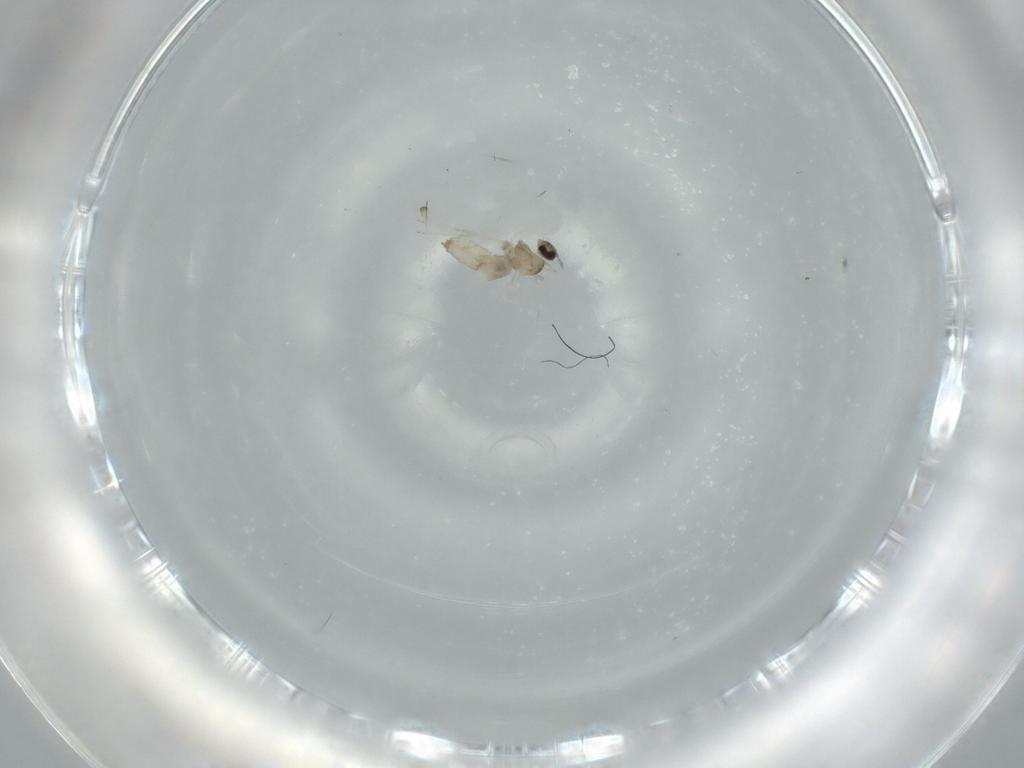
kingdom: Animalia
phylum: Arthropoda
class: Insecta
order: Diptera
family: Cecidomyiidae
